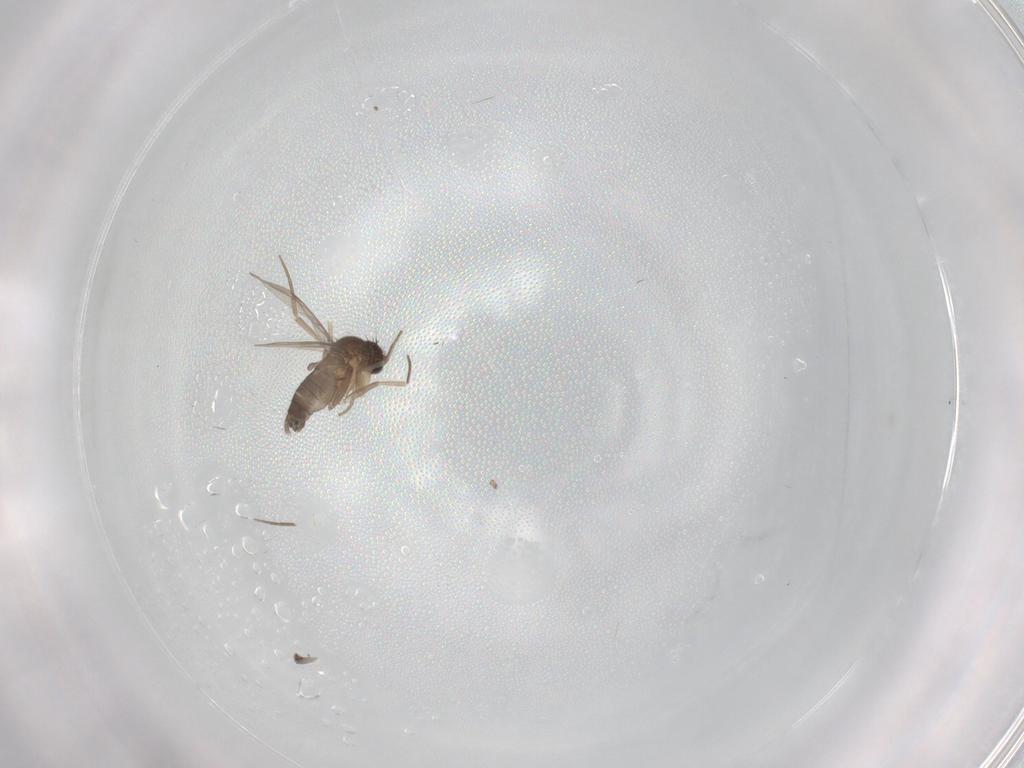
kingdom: Animalia
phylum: Arthropoda
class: Insecta
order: Diptera
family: Phoridae
